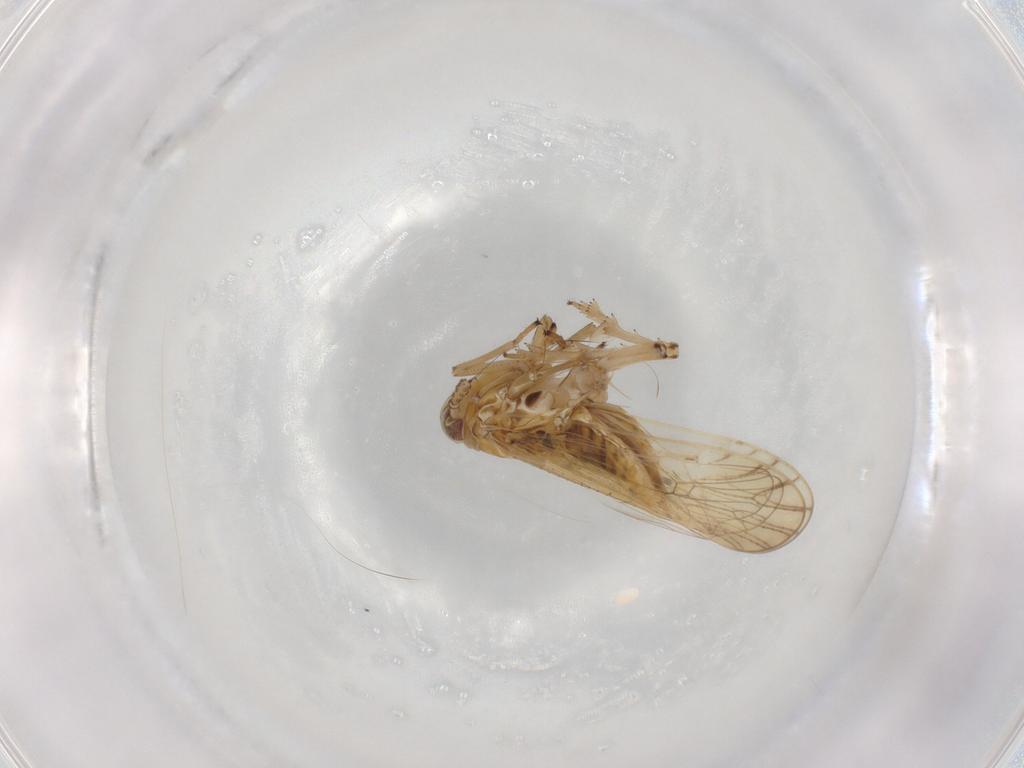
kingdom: Animalia
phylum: Arthropoda
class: Insecta
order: Hemiptera
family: Delphacidae
